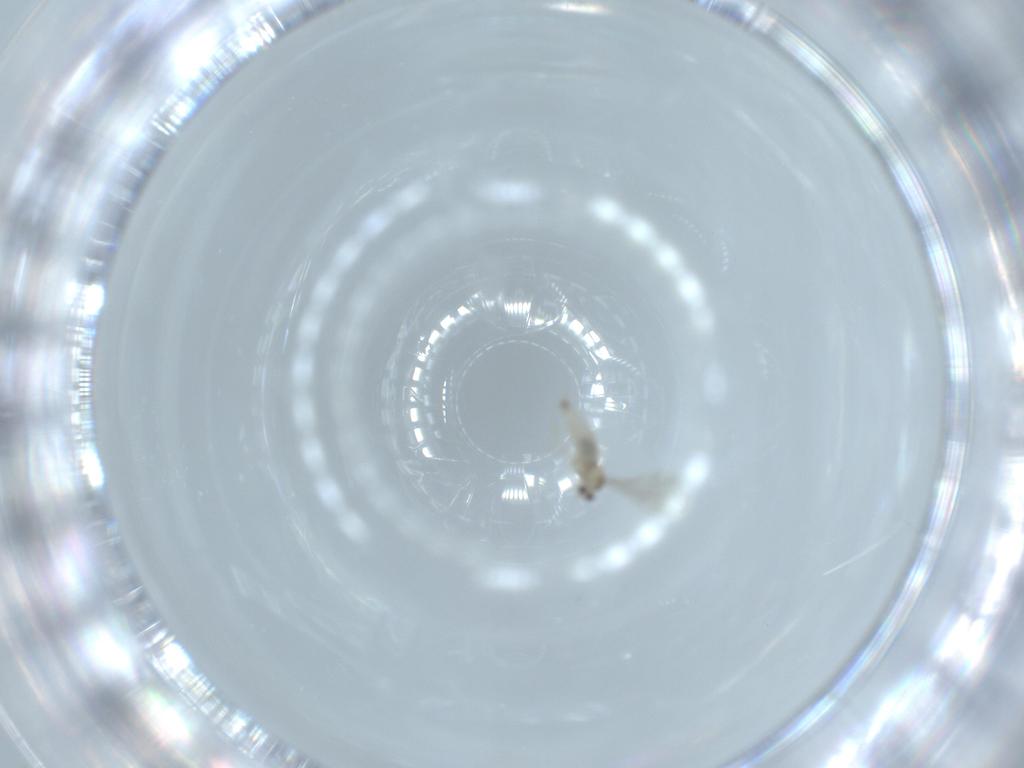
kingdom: Animalia
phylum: Arthropoda
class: Insecta
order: Diptera
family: Cecidomyiidae
